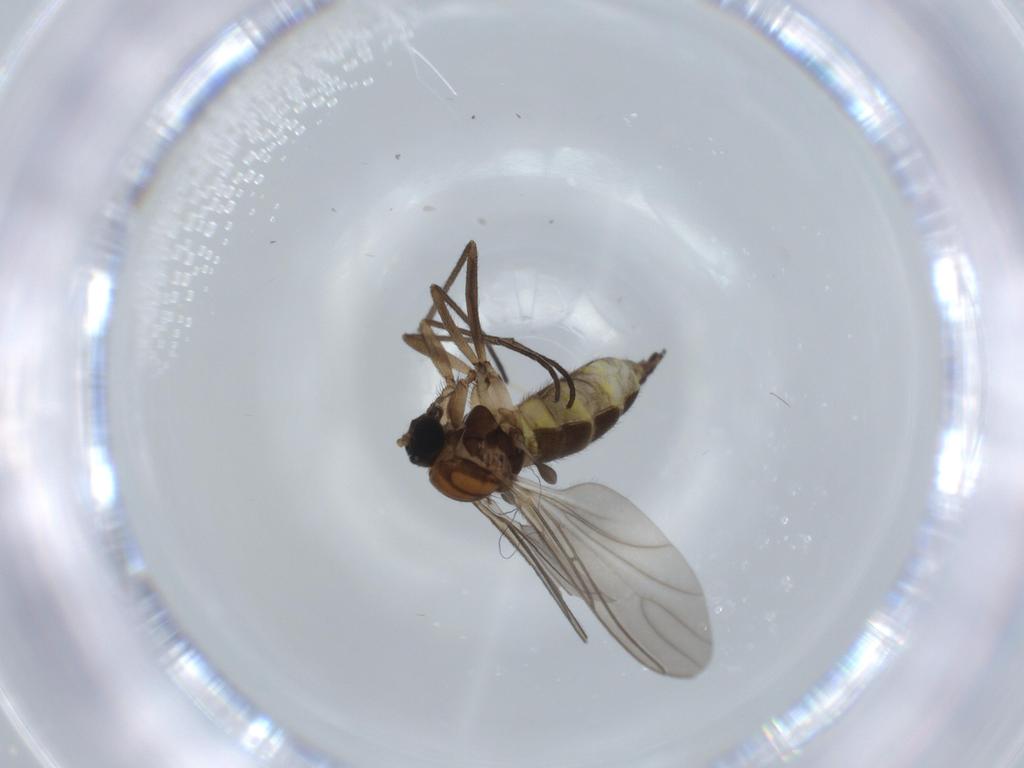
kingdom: Animalia
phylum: Arthropoda
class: Insecta
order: Diptera
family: Sciaridae
